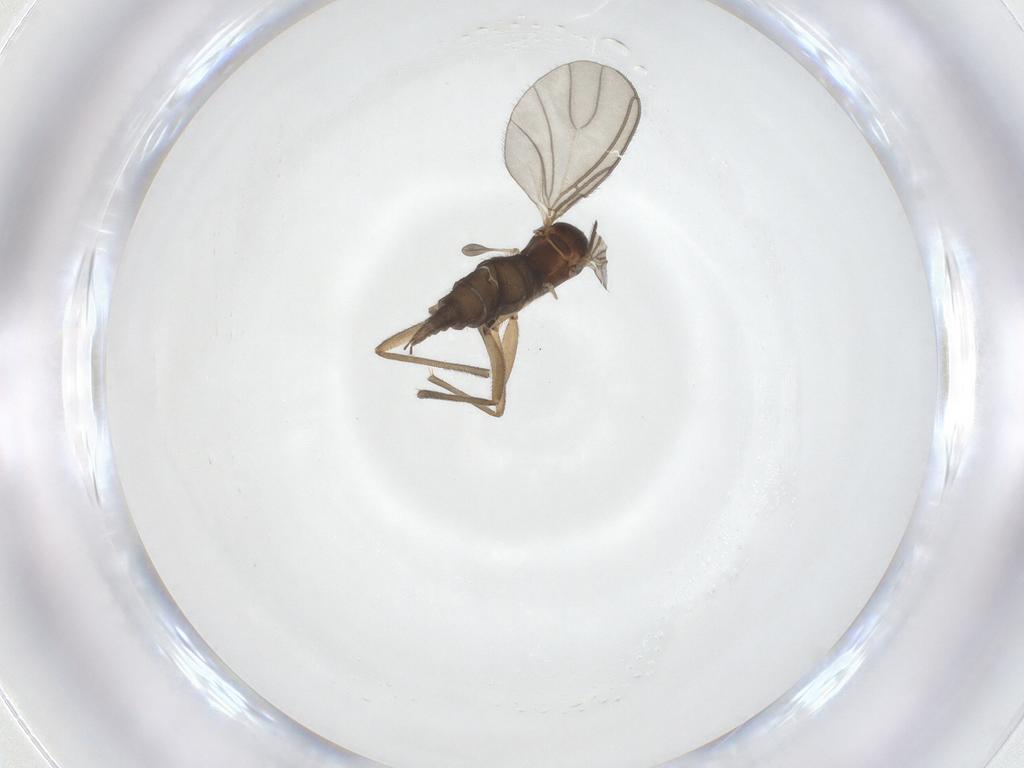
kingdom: Animalia
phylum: Arthropoda
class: Insecta
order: Diptera
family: Sciaridae
